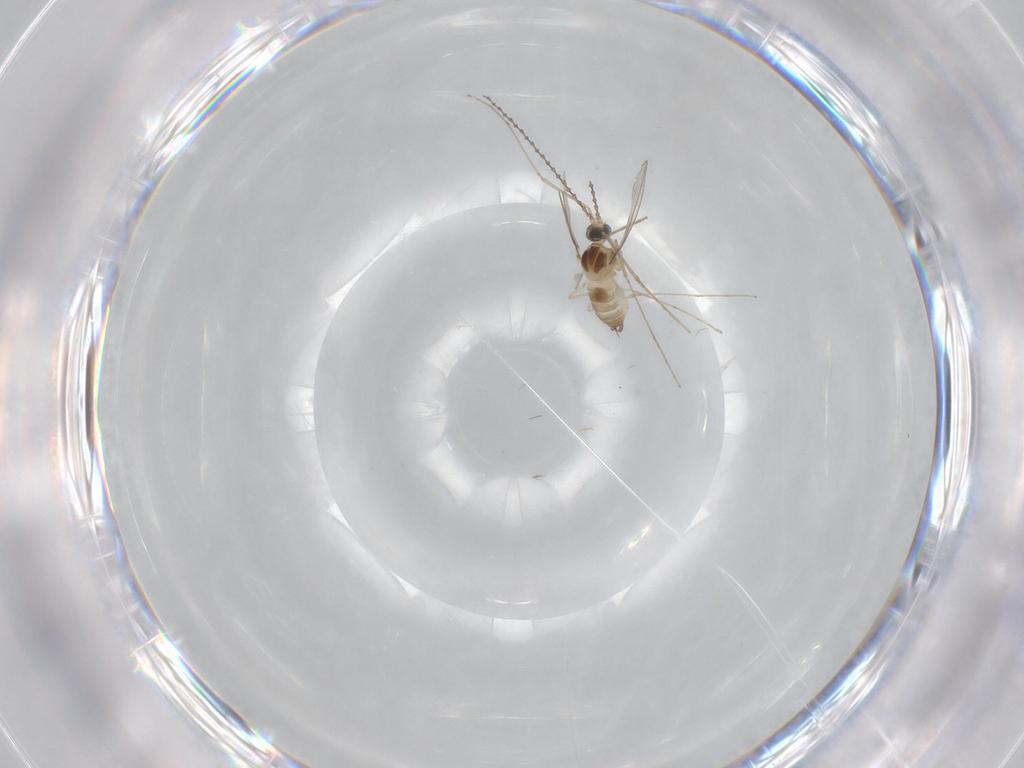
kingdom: Animalia
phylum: Arthropoda
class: Insecta
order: Diptera
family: Cecidomyiidae
